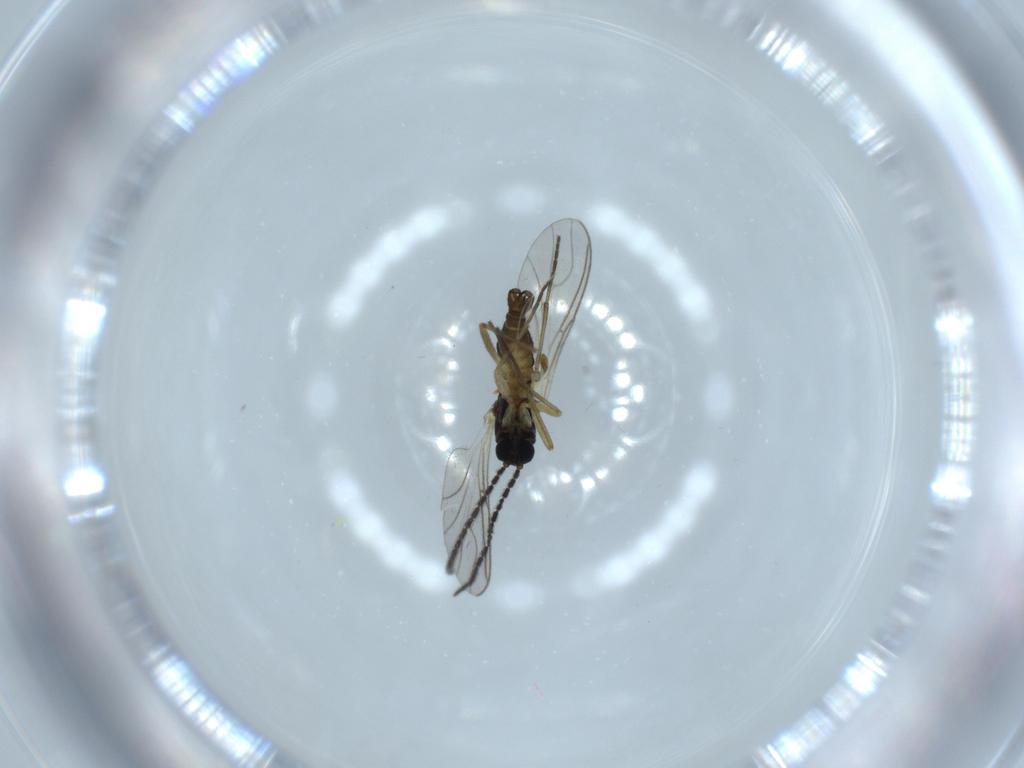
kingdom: Animalia
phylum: Arthropoda
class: Insecta
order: Diptera
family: Sciaridae
